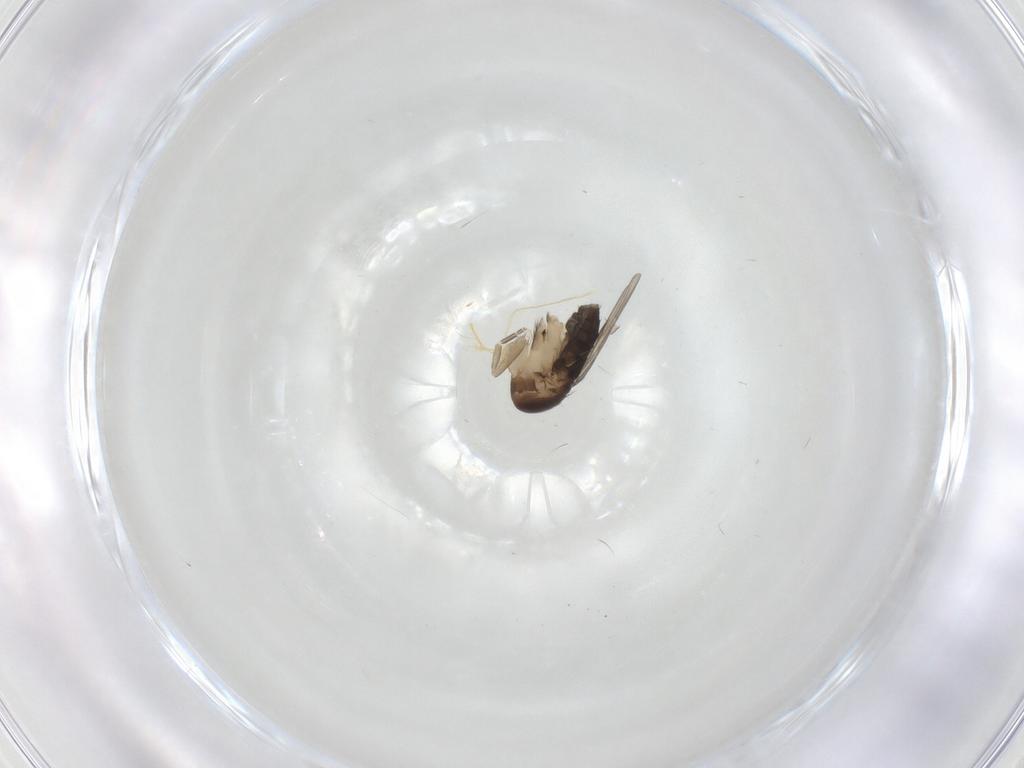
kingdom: Animalia
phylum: Arthropoda
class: Insecta
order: Diptera
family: Phoridae
